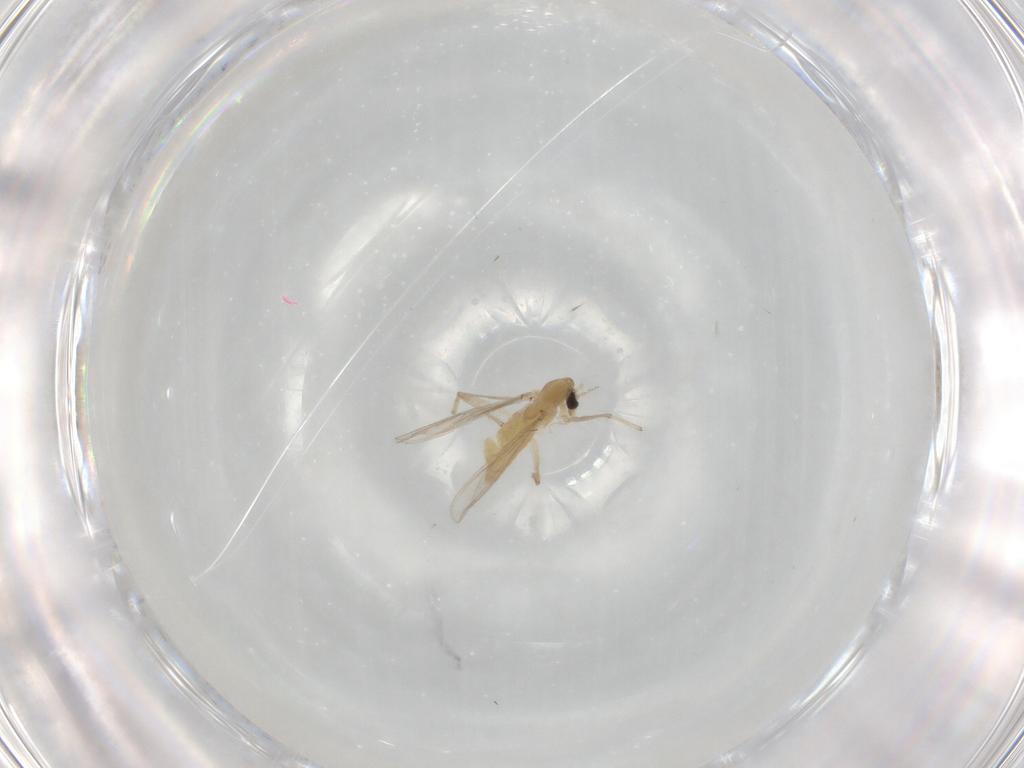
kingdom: Animalia
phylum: Arthropoda
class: Insecta
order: Diptera
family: Chironomidae
